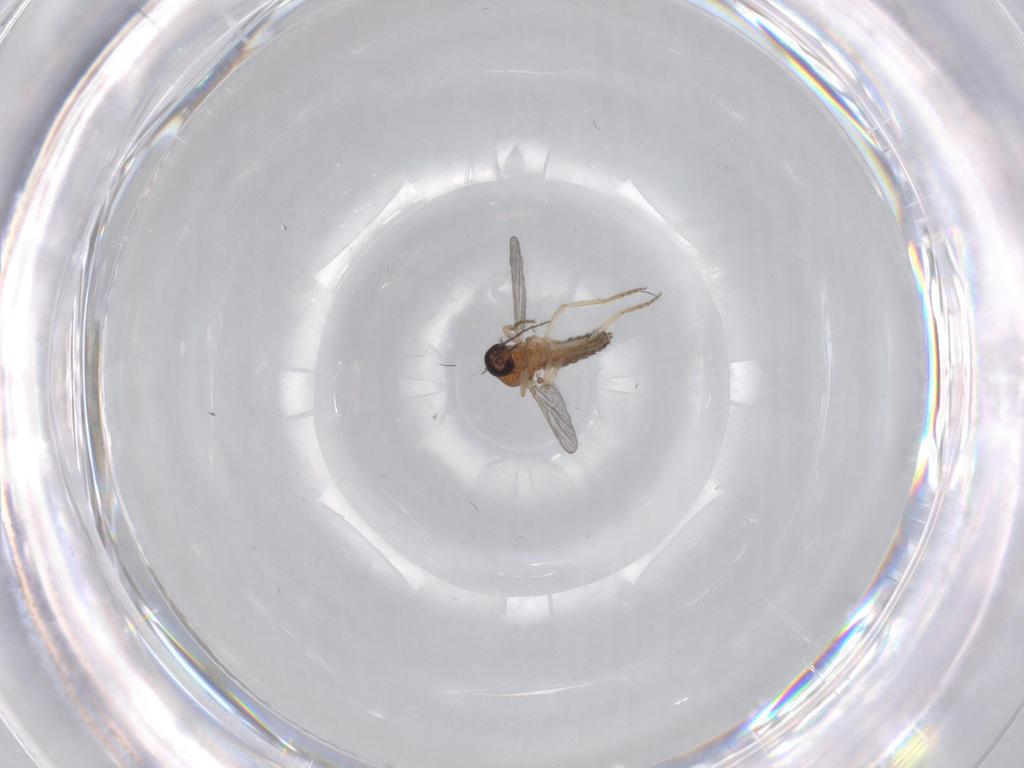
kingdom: Animalia
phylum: Arthropoda
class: Insecta
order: Diptera
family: Ceratopogonidae
